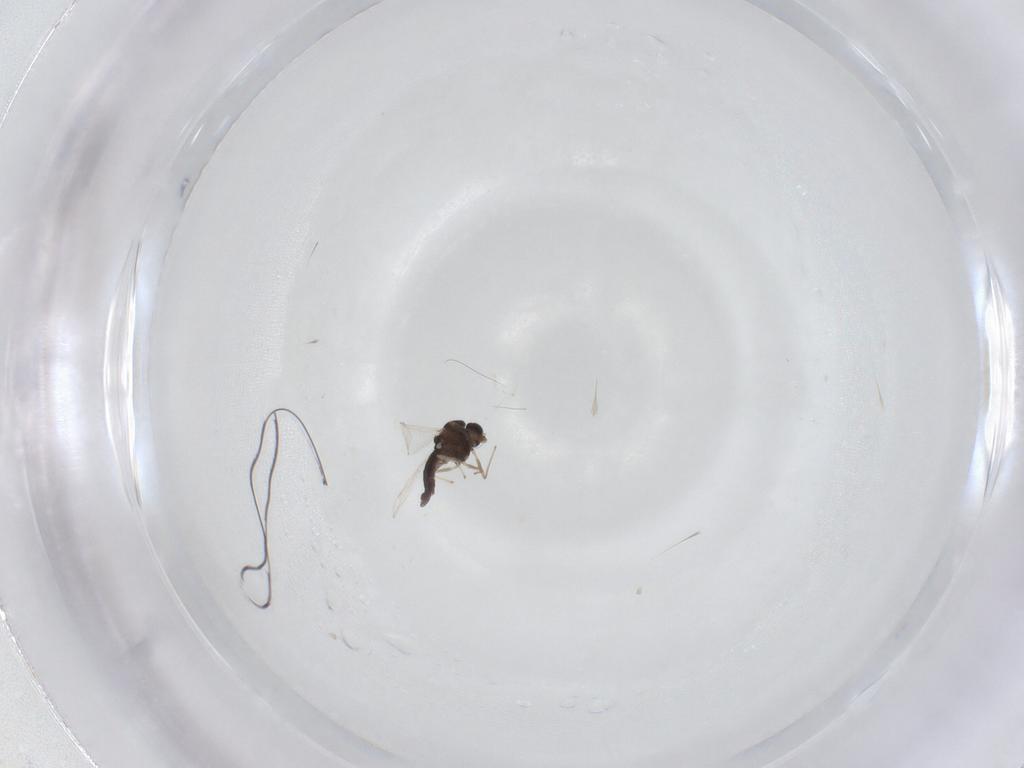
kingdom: Animalia
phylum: Arthropoda
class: Insecta
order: Diptera
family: Chironomidae
